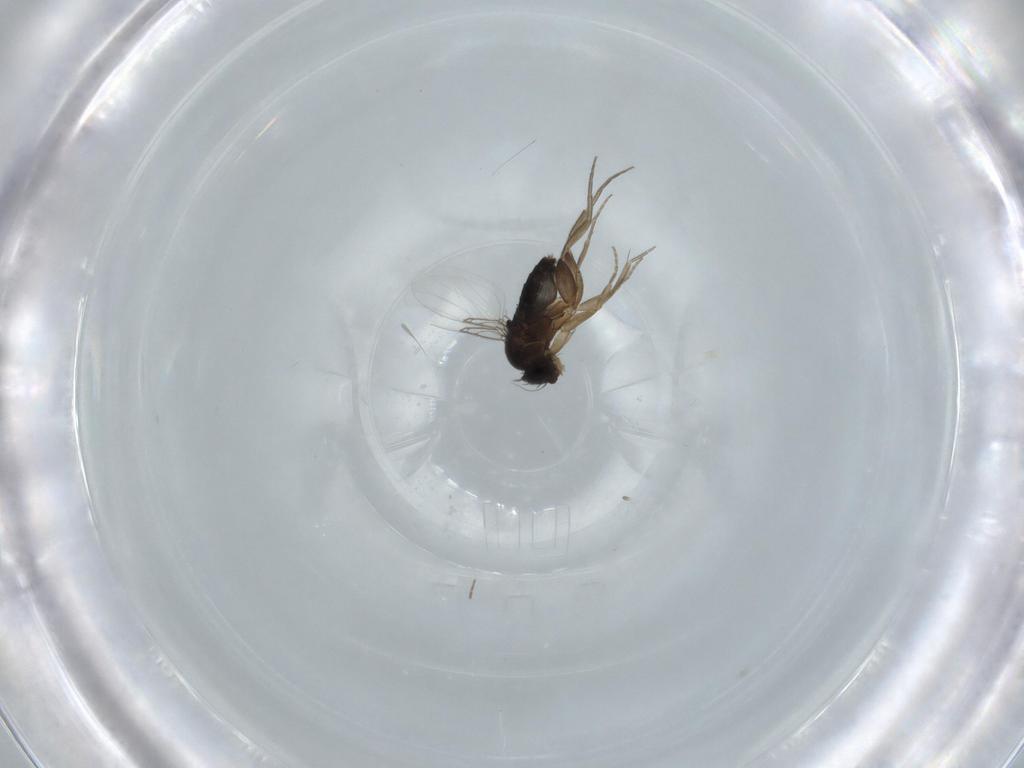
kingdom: Animalia
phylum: Arthropoda
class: Insecta
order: Diptera
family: Phoridae
